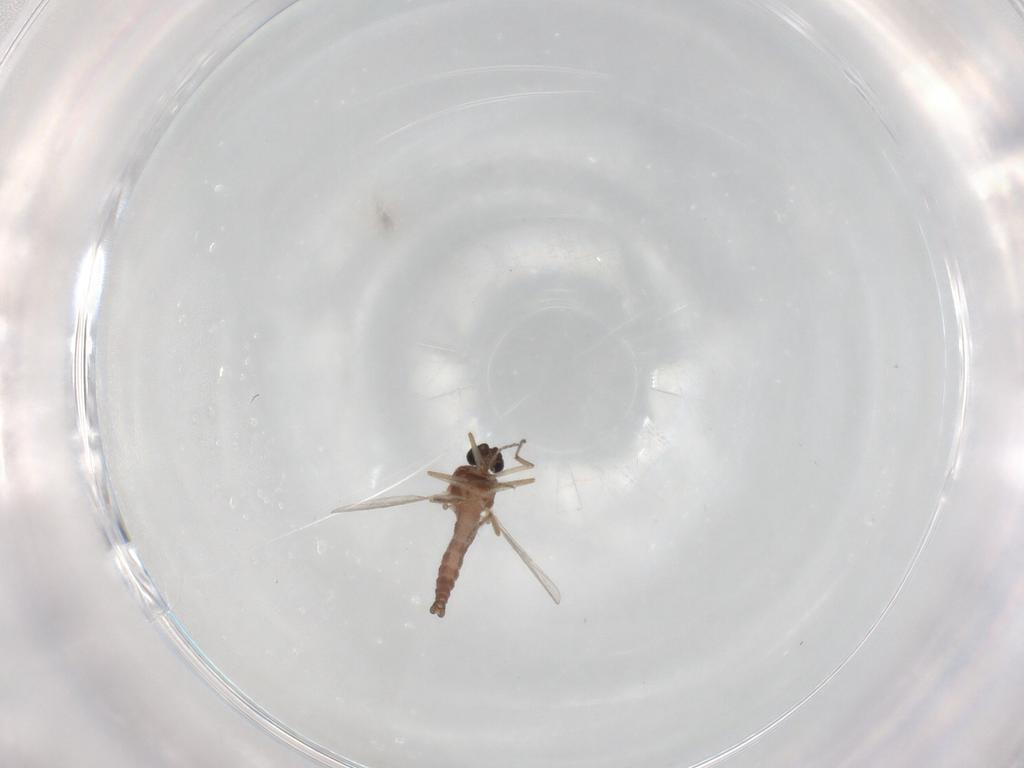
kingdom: Animalia
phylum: Arthropoda
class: Insecta
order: Diptera
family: Ceratopogonidae
